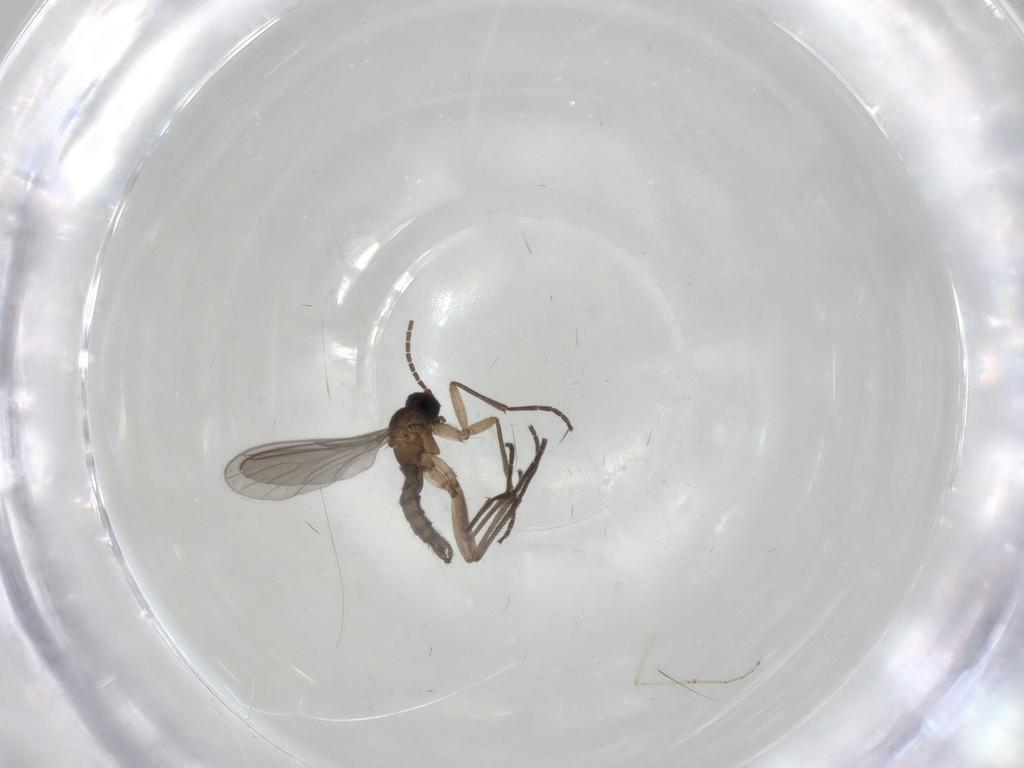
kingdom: Animalia
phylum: Arthropoda
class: Insecta
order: Diptera
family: Sciaridae
